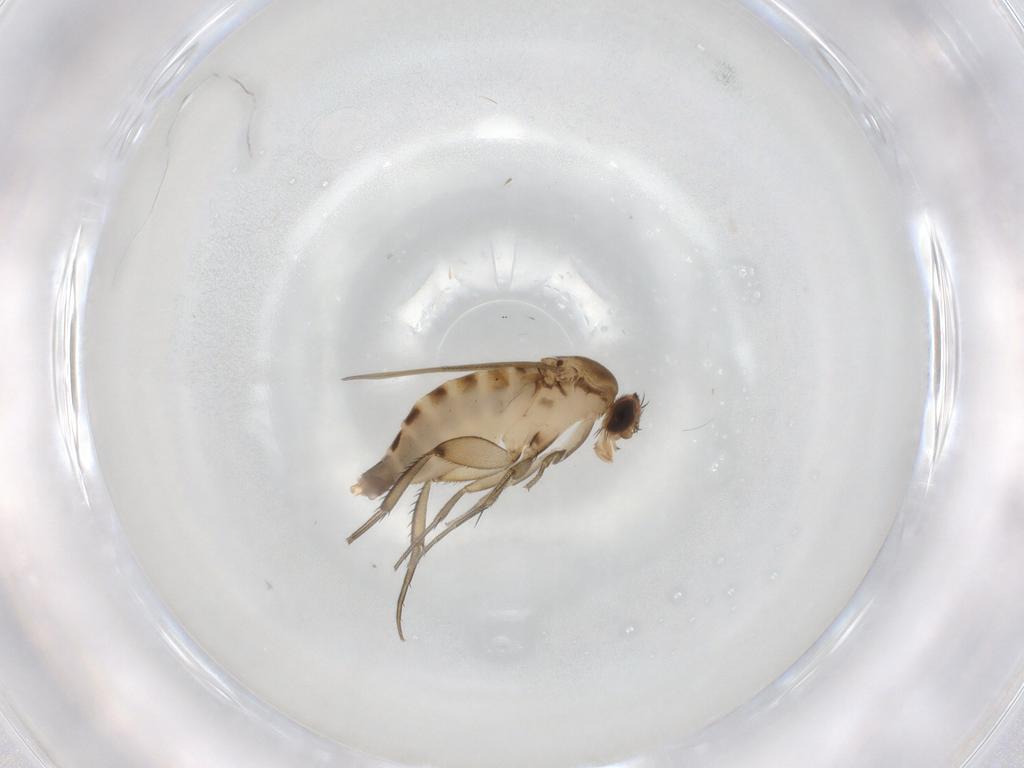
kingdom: Animalia
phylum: Arthropoda
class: Insecta
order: Diptera
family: Phoridae
